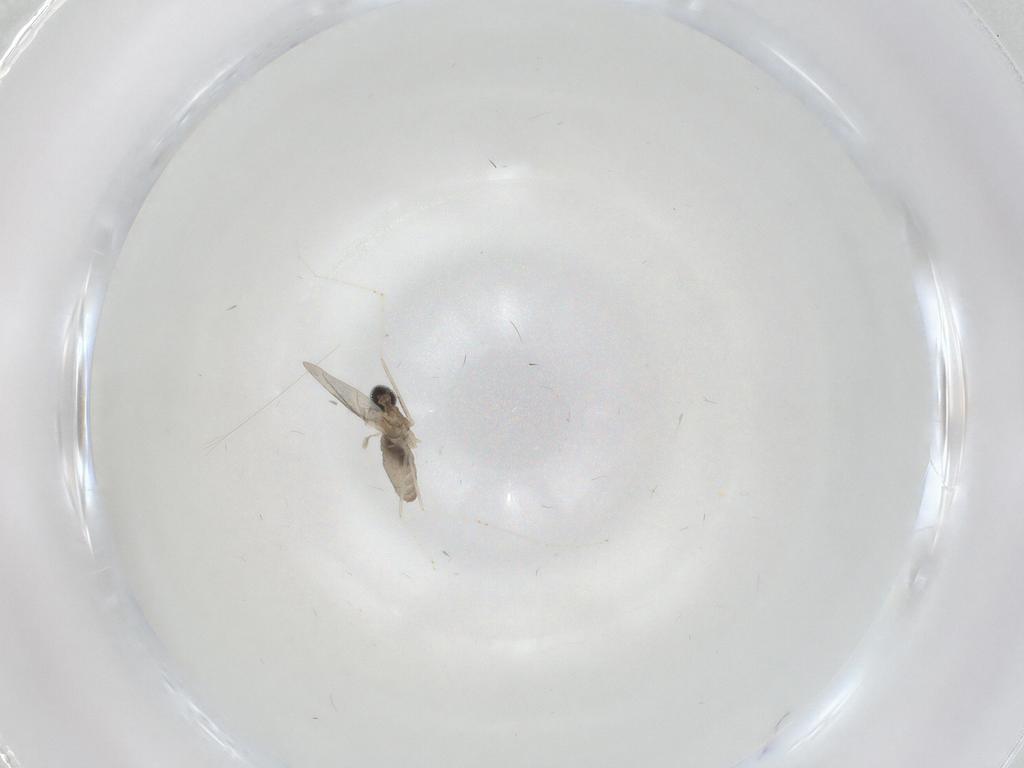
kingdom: Animalia
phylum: Arthropoda
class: Insecta
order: Diptera
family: Cecidomyiidae
